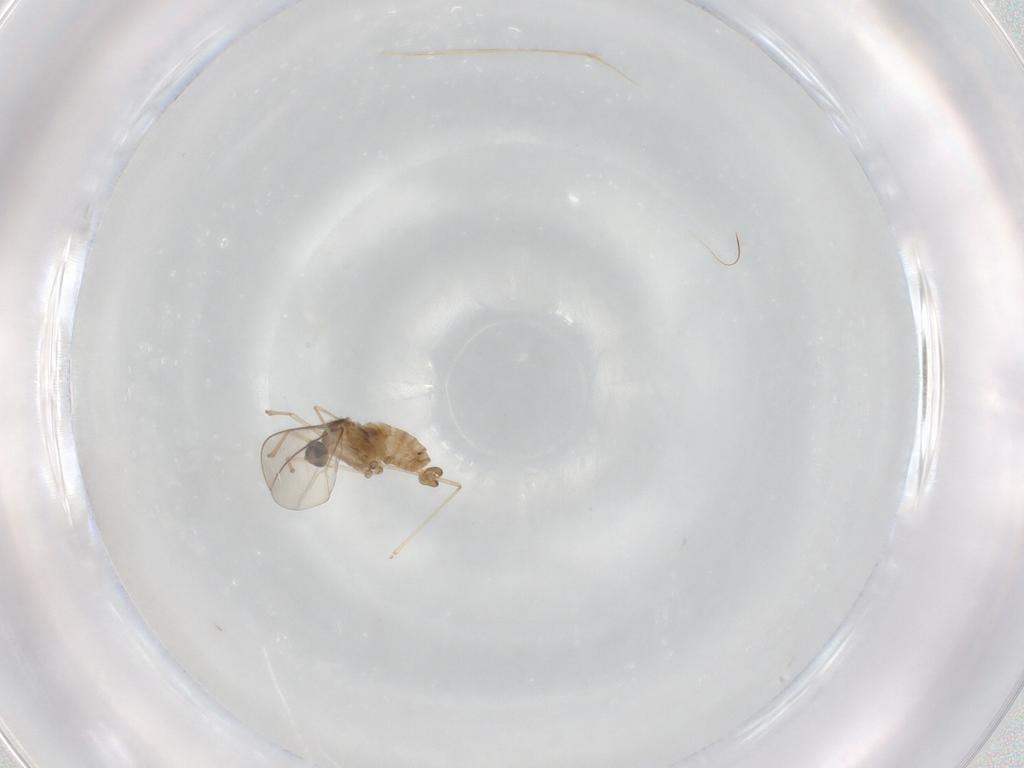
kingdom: Animalia
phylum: Arthropoda
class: Insecta
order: Diptera
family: Cecidomyiidae
